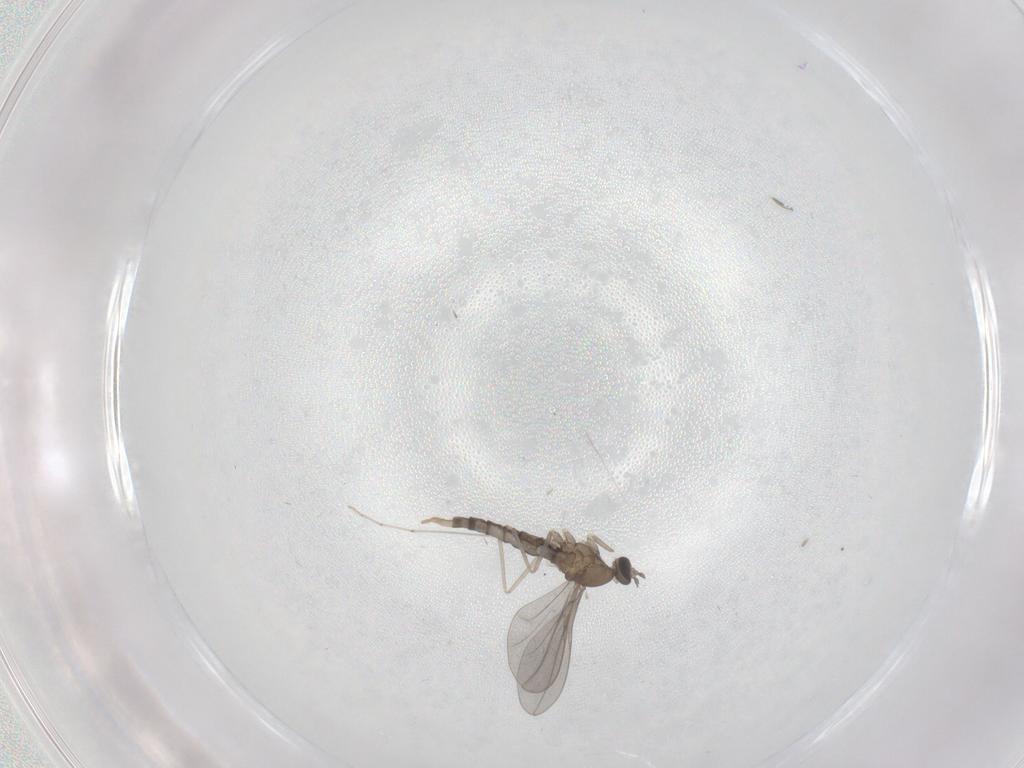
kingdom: Animalia
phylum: Arthropoda
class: Insecta
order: Diptera
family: Cecidomyiidae
